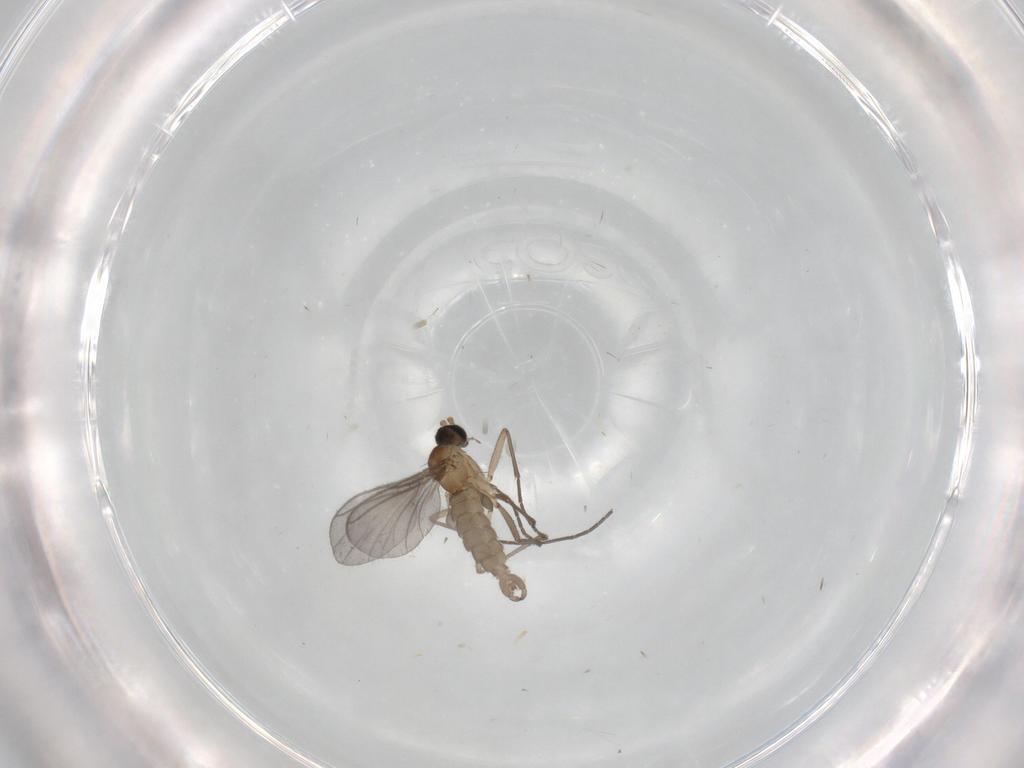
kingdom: Animalia
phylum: Arthropoda
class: Insecta
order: Diptera
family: Sciaridae
